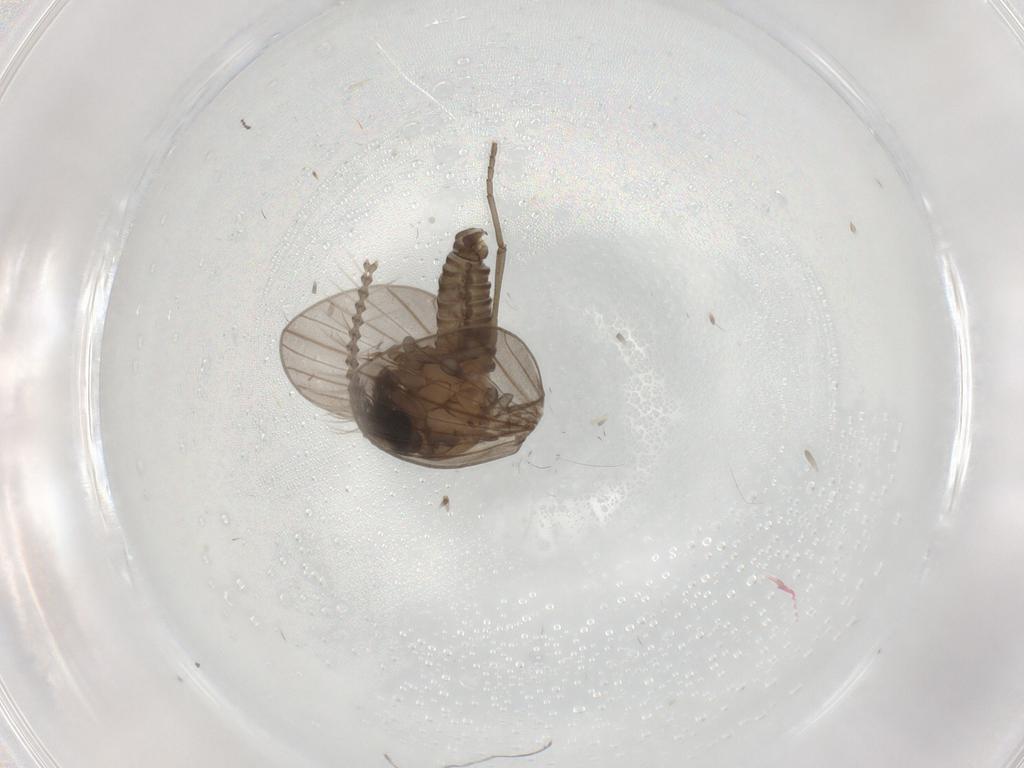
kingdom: Animalia
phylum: Arthropoda
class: Insecta
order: Diptera
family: Psychodidae
